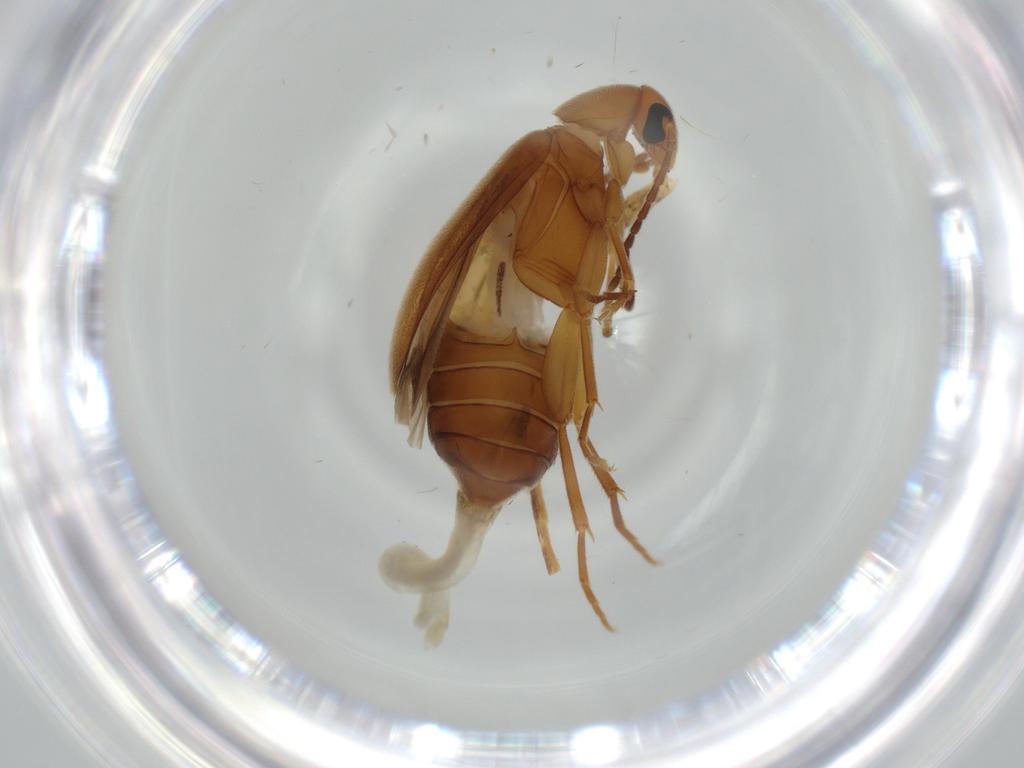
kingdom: Animalia
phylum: Arthropoda
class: Insecta
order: Coleoptera
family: Scraptiidae
